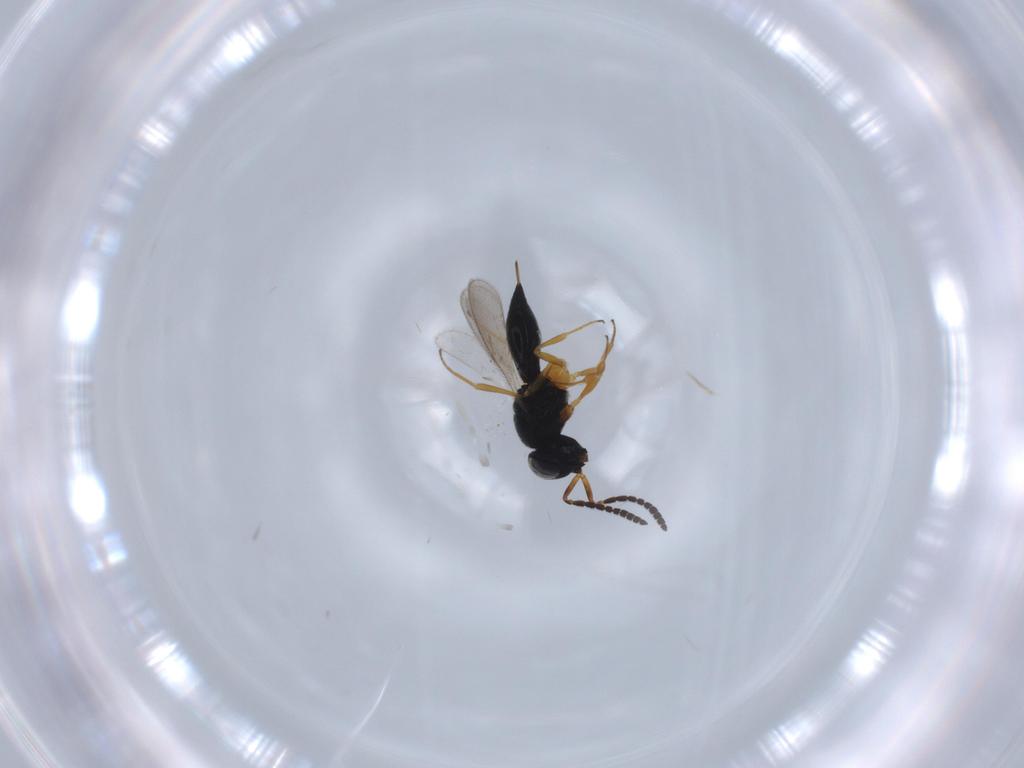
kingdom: Animalia
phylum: Arthropoda
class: Insecta
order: Hymenoptera
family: Scelionidae
